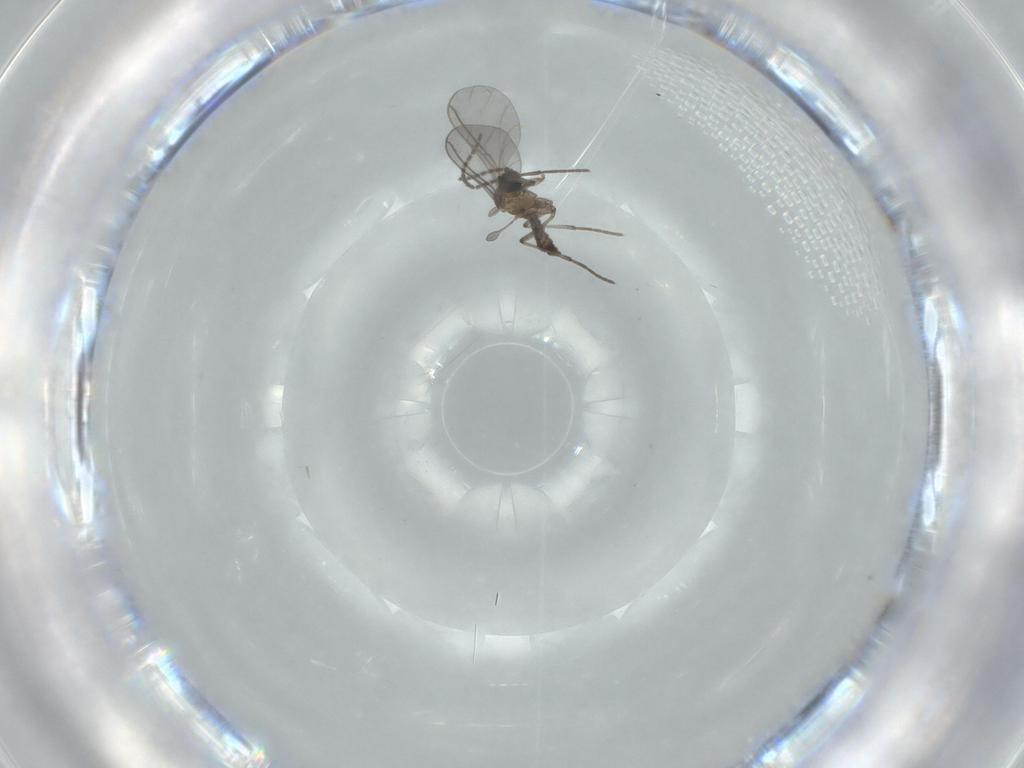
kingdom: Animalia
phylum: Arthropoda
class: Insecta
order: Diptera
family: Sciaridae
